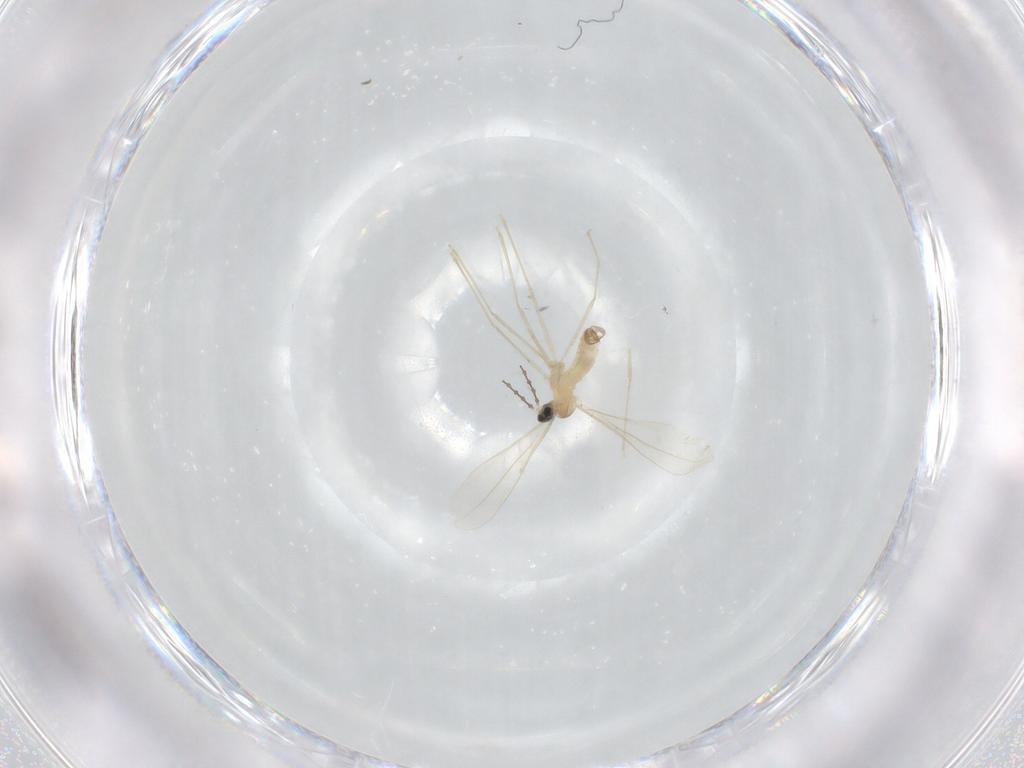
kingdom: Animalia
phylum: Arthropoda
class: Insecta
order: Diptera
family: Cecidomyiidae
